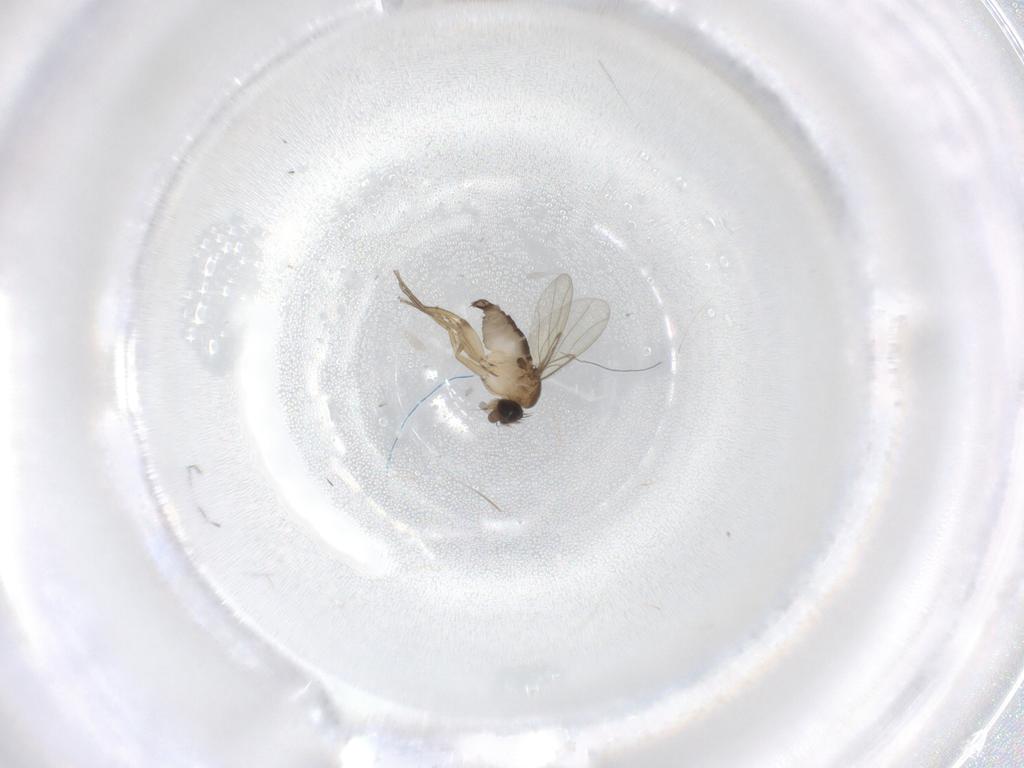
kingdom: Animalia
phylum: Arthropoda
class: Insecta
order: Diptera
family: Phoridae
